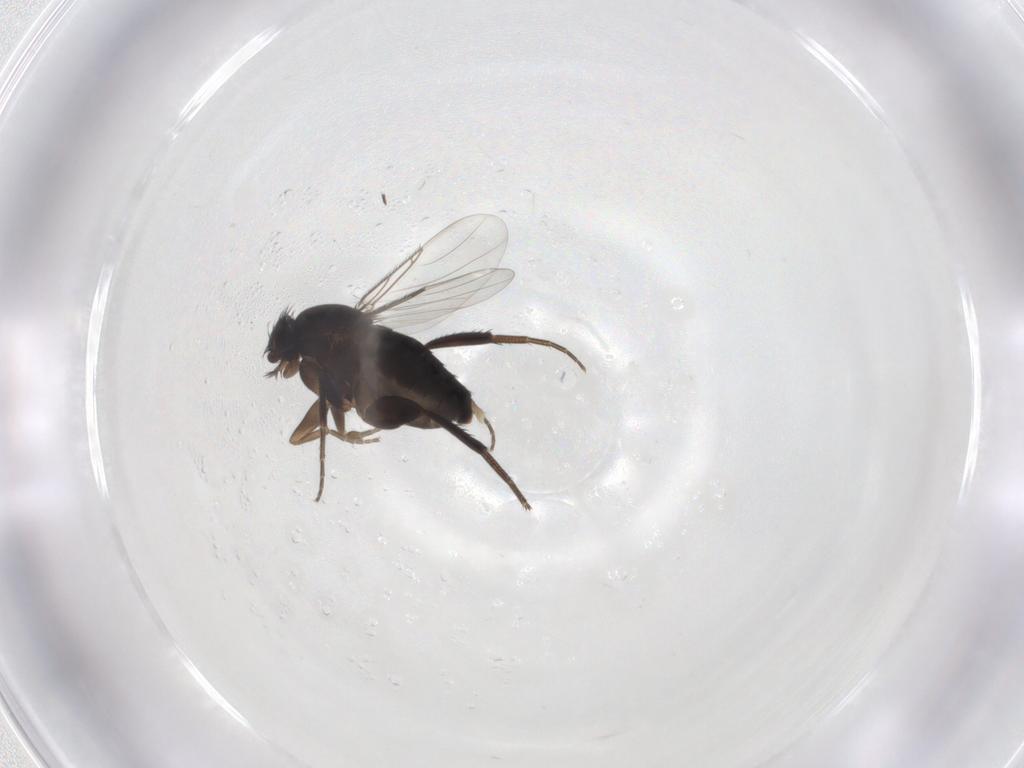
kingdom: Animalia
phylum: Arthropoda
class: Insecta
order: Diptera
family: Phoridae
